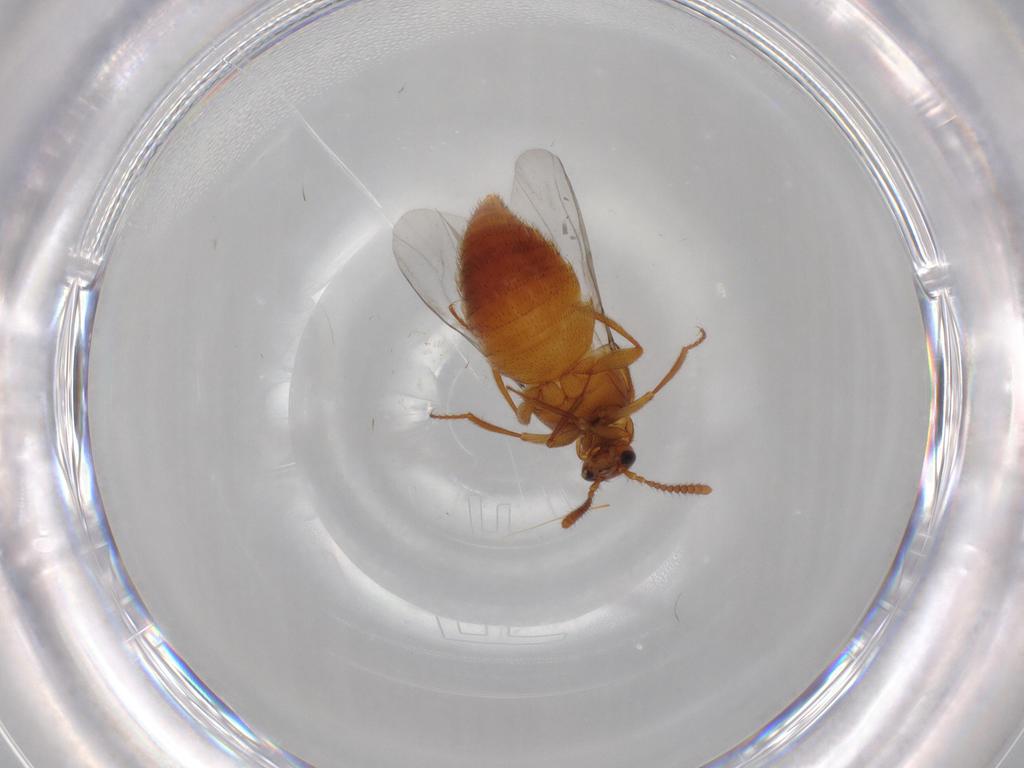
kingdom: Animalia
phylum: Arthropoda
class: Insecta
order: Coleoptera
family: Staphylinidae
